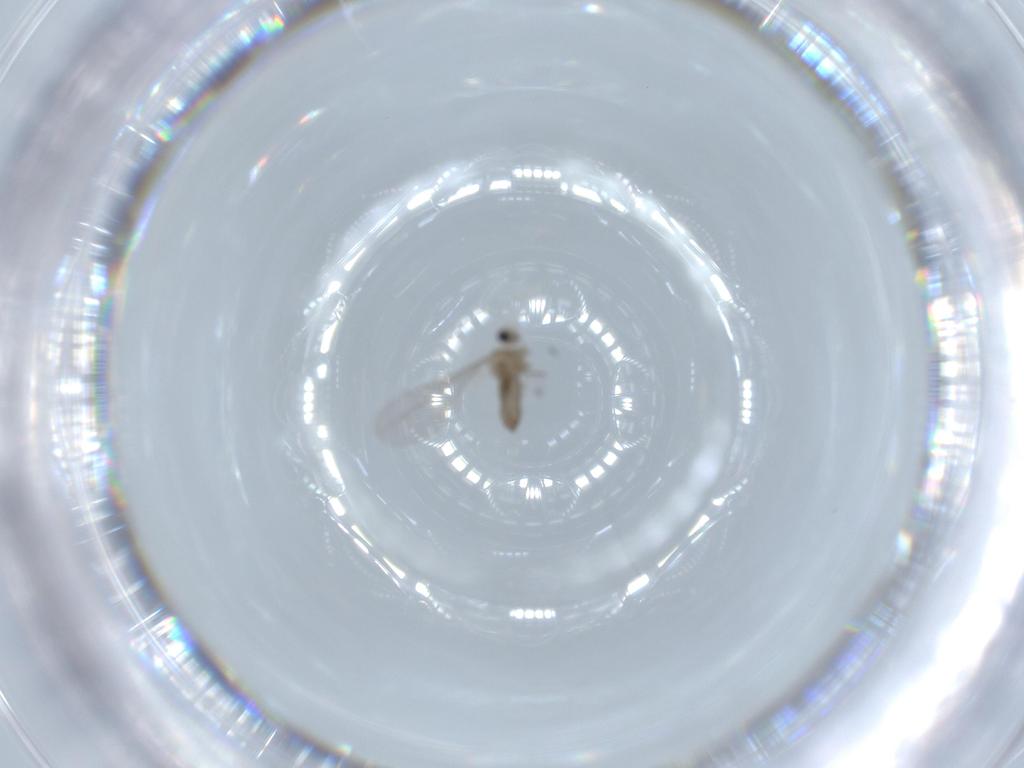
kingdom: Animalia
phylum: Arthropoda
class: Insecta
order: Diptera
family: Cecidomyiidae
